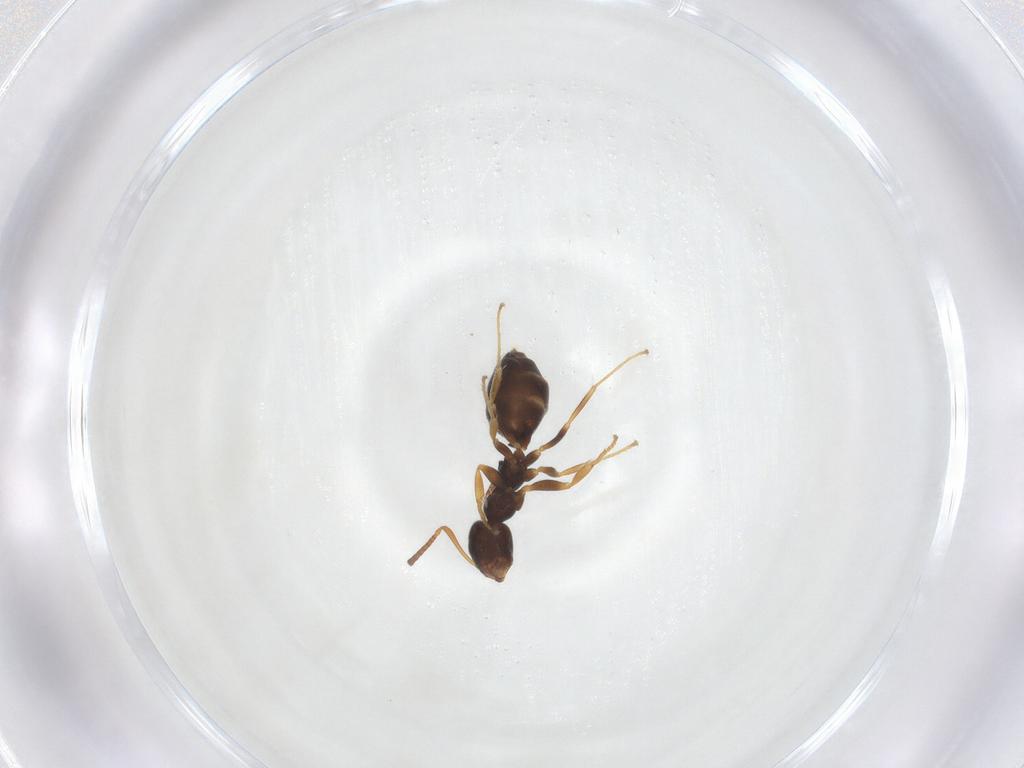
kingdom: Animalia
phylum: Arthropoda
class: Insecta
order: Hymenoptera
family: Formicidae
